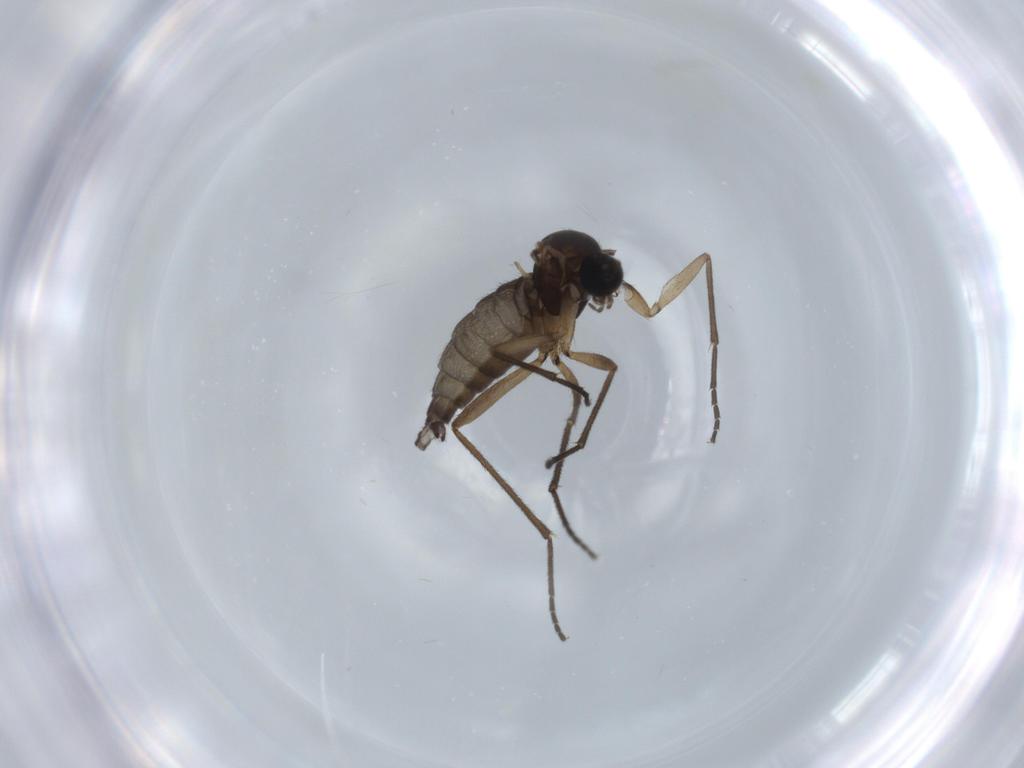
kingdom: Animalia
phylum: Arthropoda
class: Insecta
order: Diptera
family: Sciaridae
